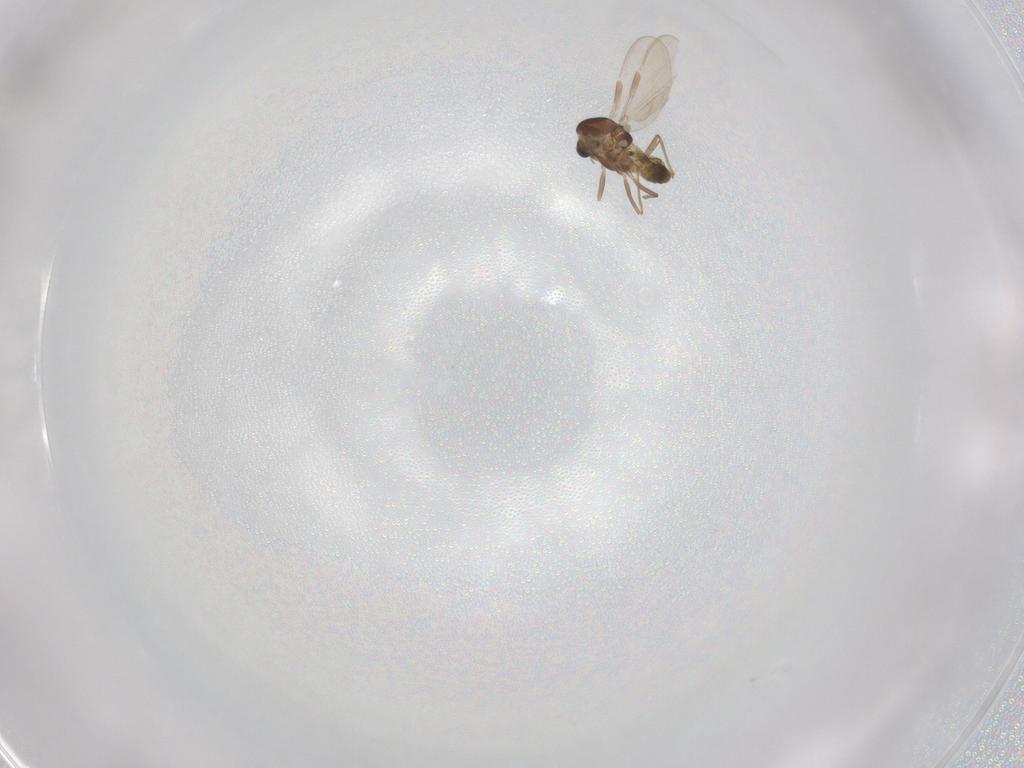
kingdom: Animalia
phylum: Arthropoda
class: Insecta
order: Diptera
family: Chironomidae
